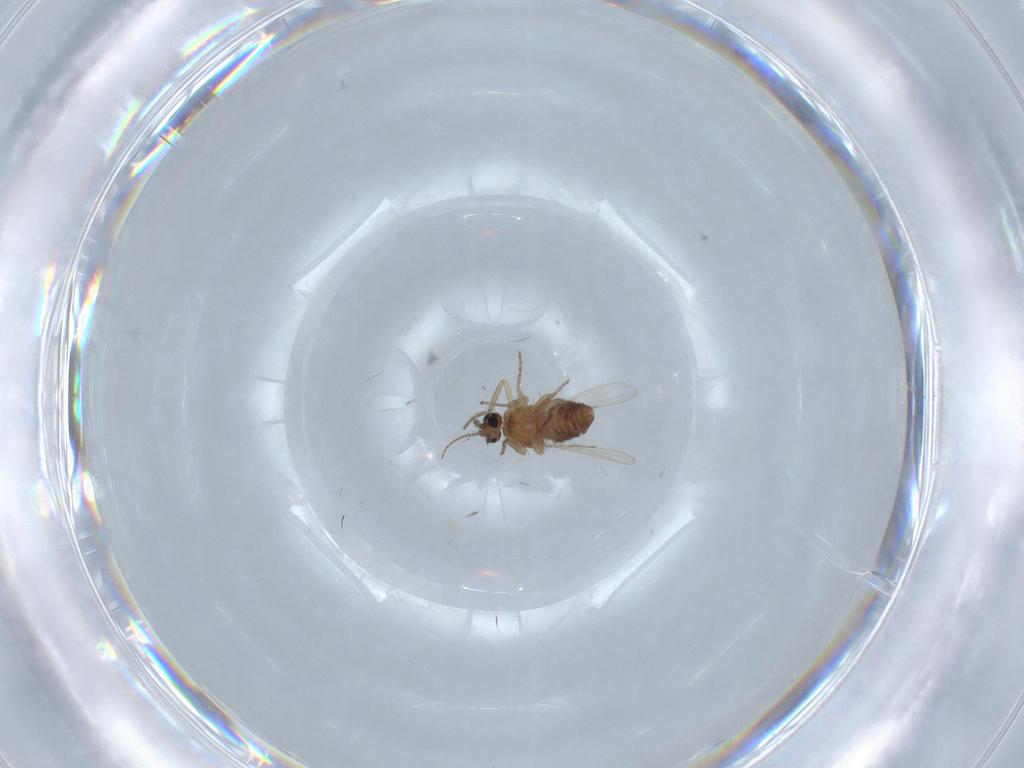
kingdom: Animalia
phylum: Arthropoda
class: Insecta
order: Diptera
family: Ceratopogonidae
